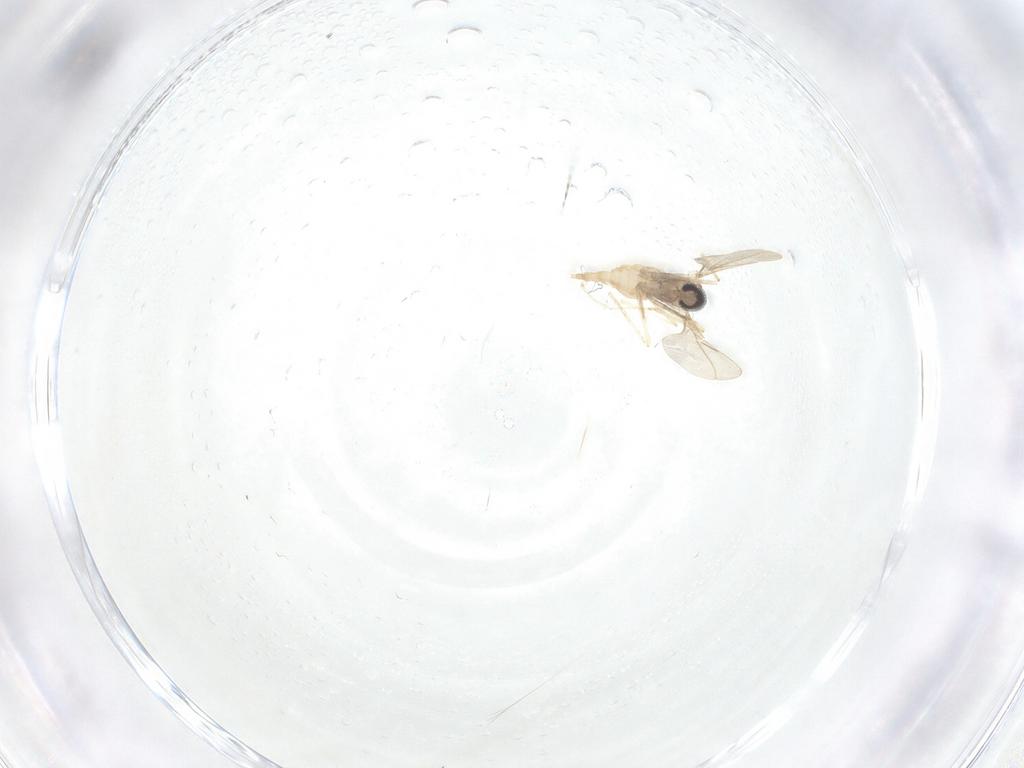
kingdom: Animalia
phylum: Arthropoda
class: Insecta
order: Diptera
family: Cecidomyiidae
